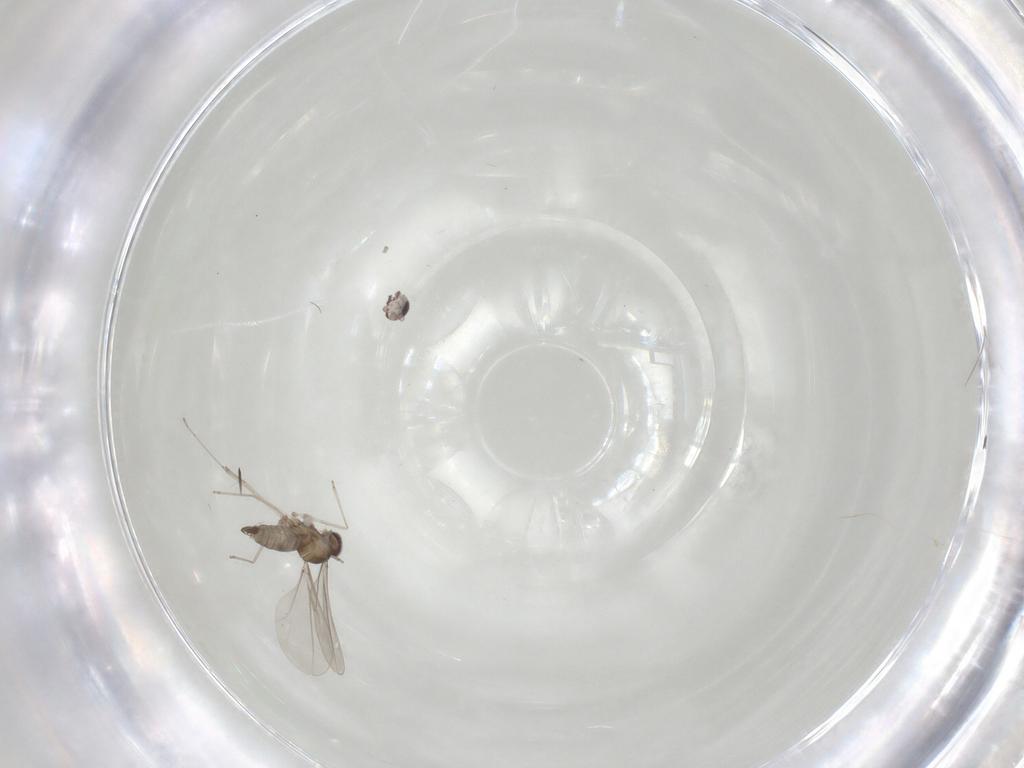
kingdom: Animalia
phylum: Arthropoda
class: Insecta
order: Diptera
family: Cecidomyiidae
